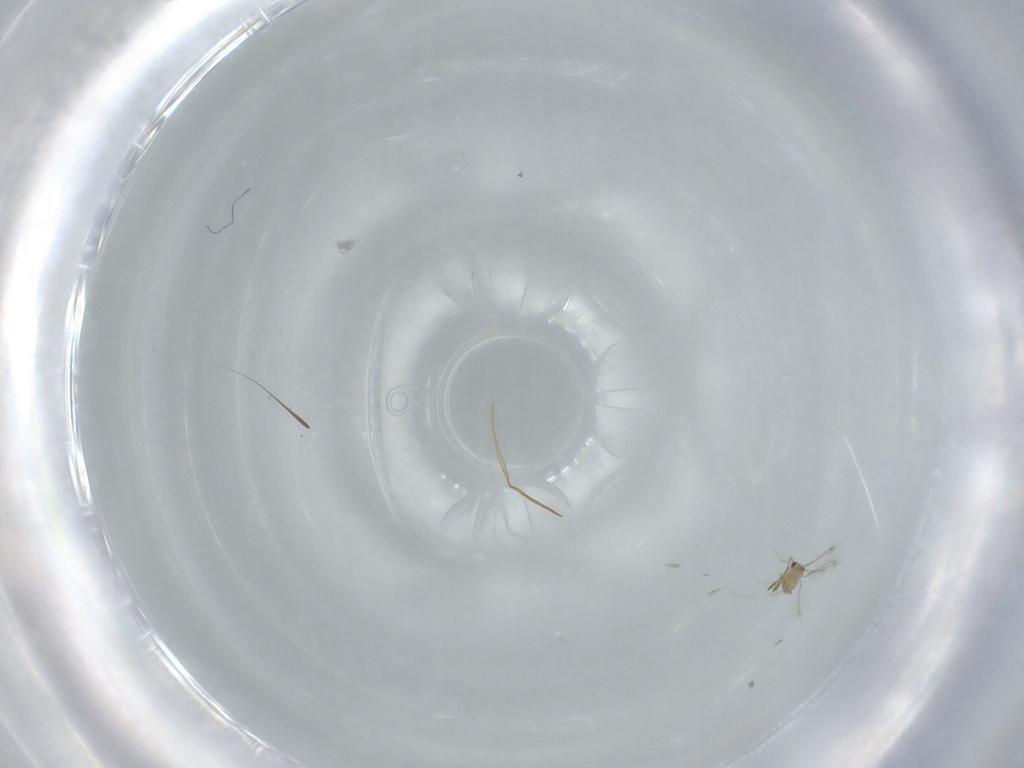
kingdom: Animalia
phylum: Arthropoda
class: Insecta
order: Hymenoptera
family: Mymaridae
